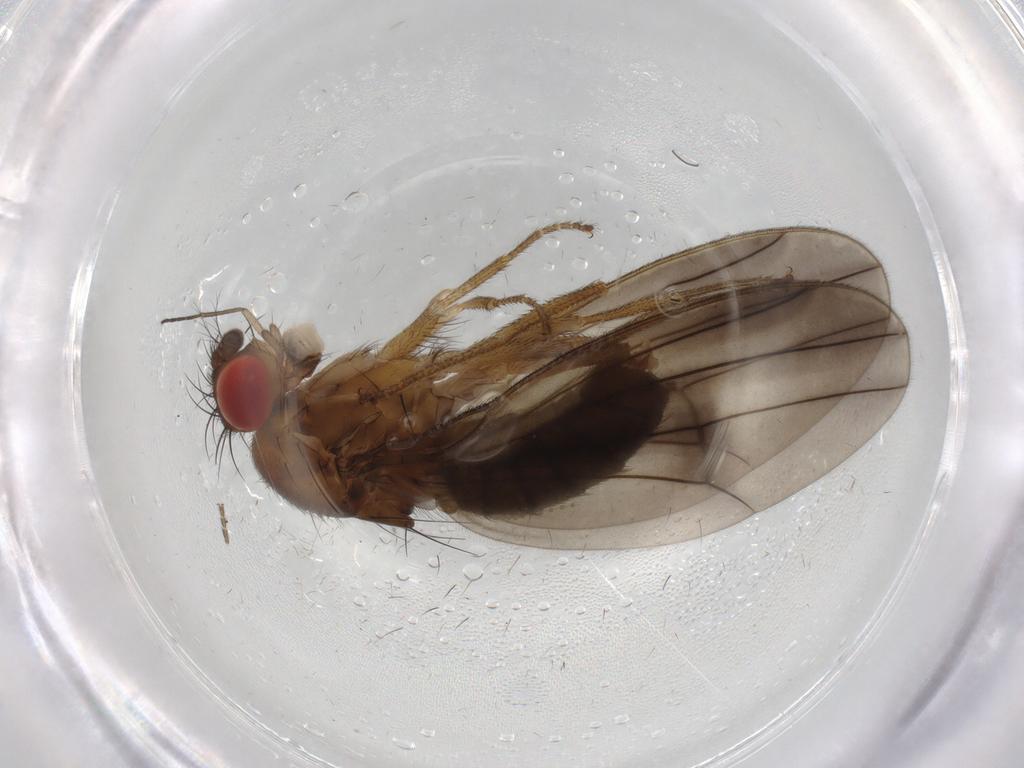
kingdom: Animalia
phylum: Arthropoda
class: Insecta
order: Diptera
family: Drosophilidae
